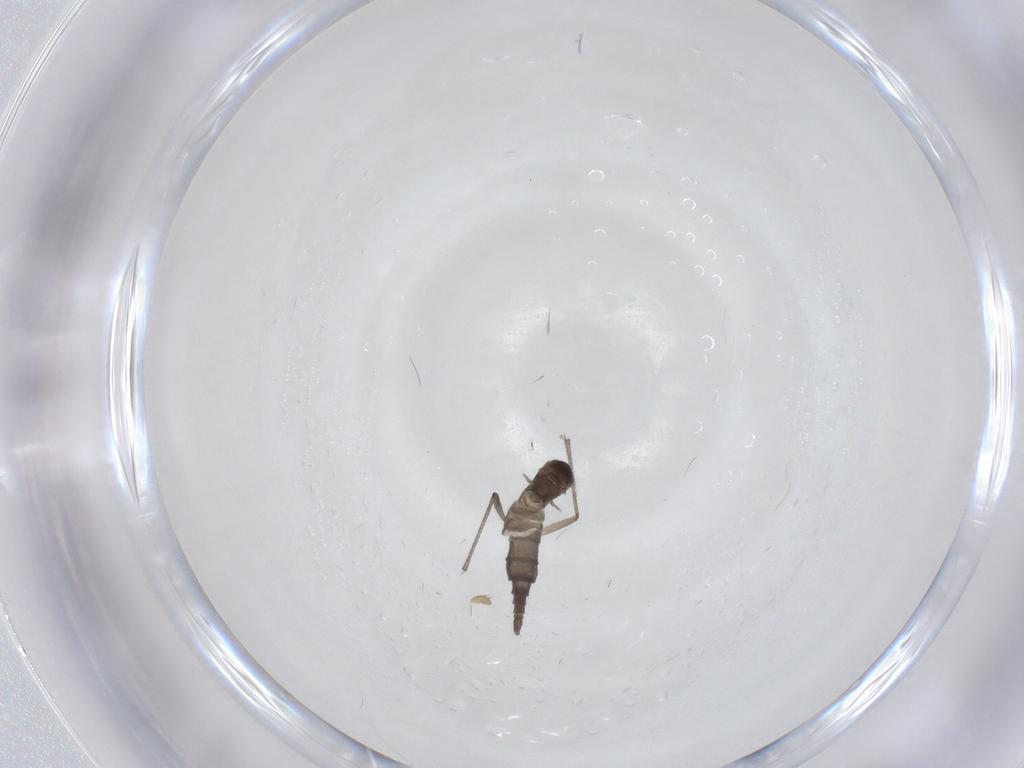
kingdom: Animalia
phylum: Arthropoda
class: Insecta
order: Diptera
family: Sciaridae
